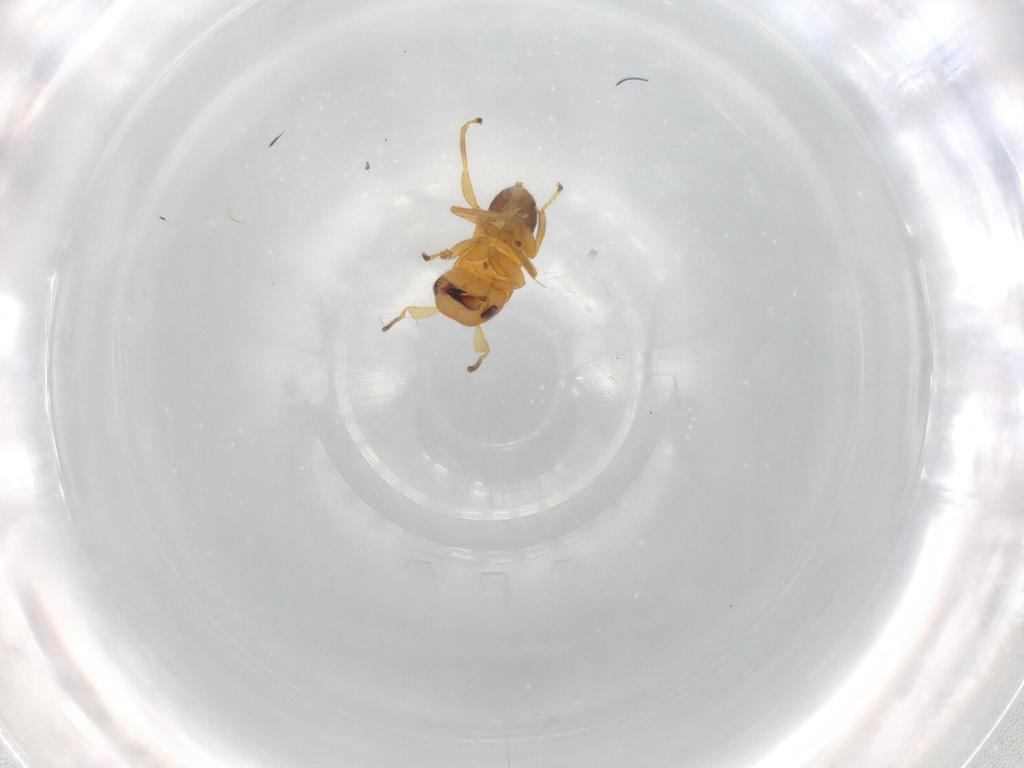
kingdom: Animalia
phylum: Arthropoda
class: Insecta
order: Hymenoptera
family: Pteromalidae
